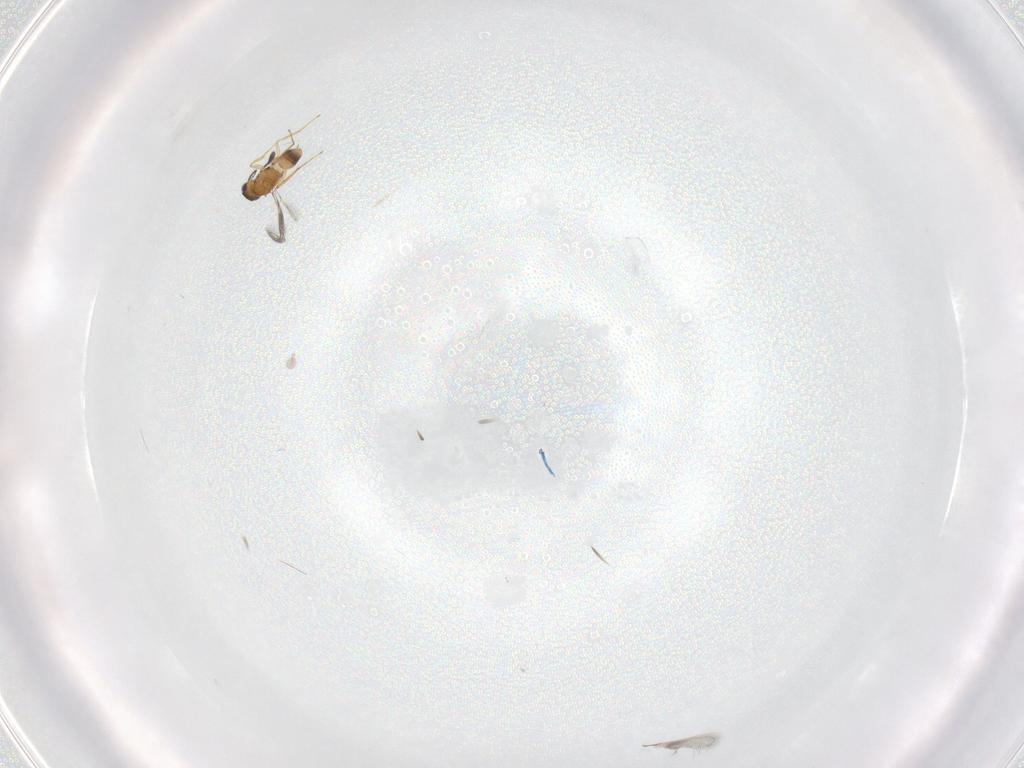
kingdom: Animalia
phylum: Arthropoda
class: Insecta
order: Hymenoptera
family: Mymaridae
